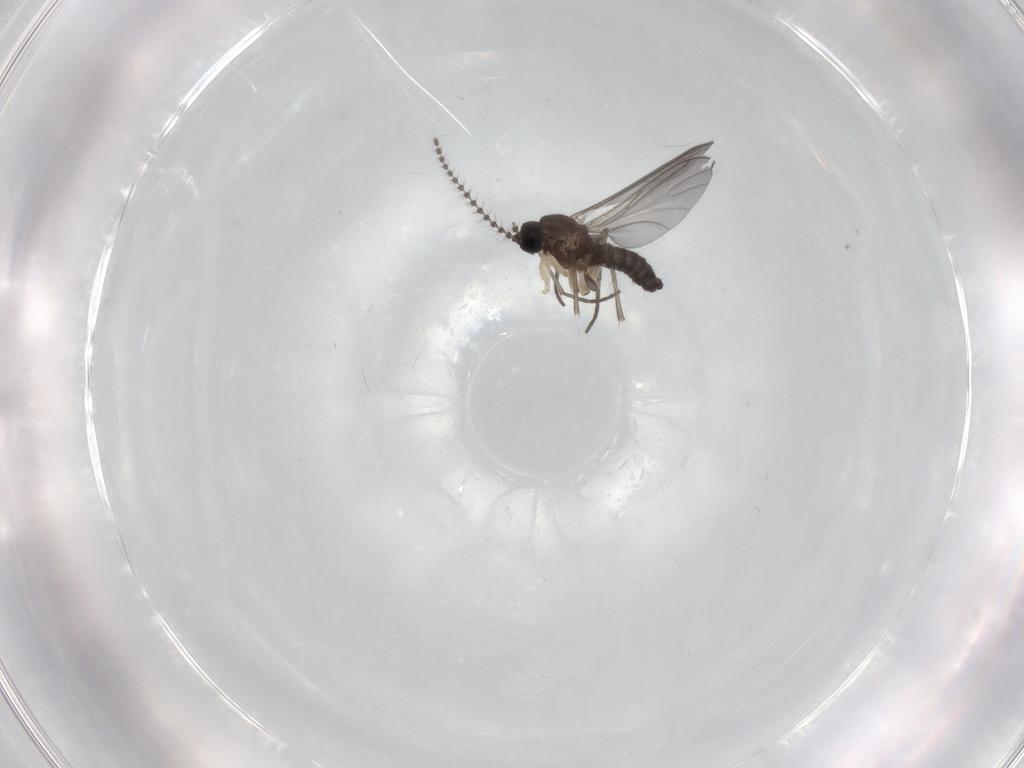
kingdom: Animalia
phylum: Arthropoda
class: Insecta
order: Diptera
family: Sciaridae
